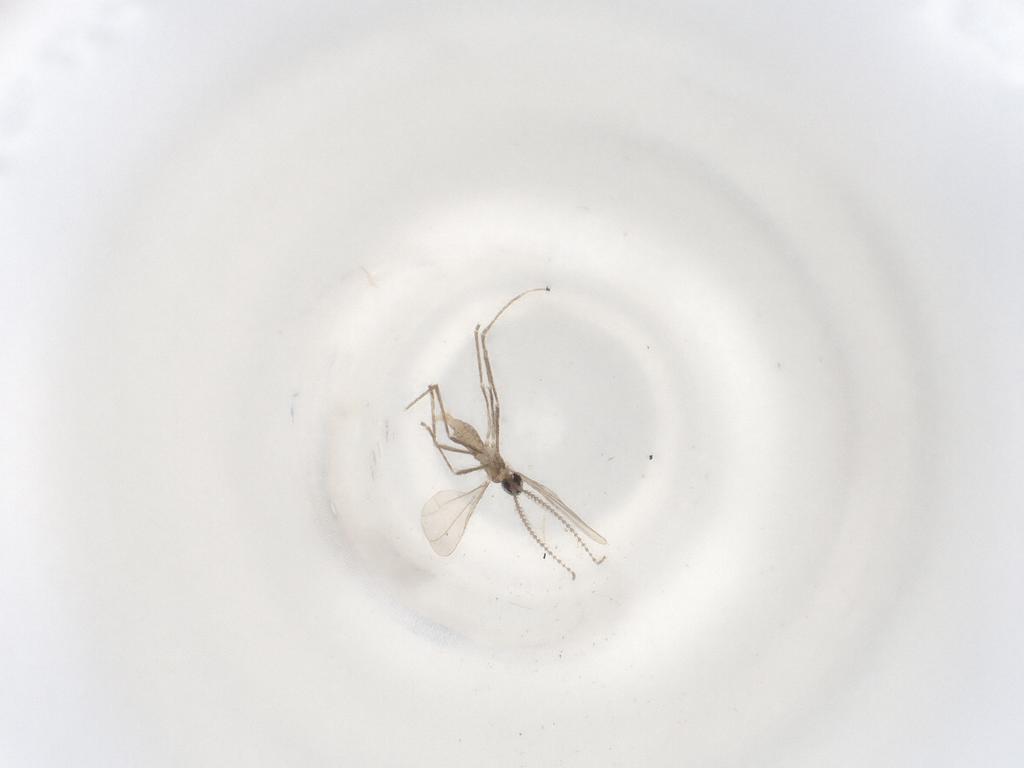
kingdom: Animalia
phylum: Arthropoda
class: Insecta
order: Diptera
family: Cecidomyiidae
